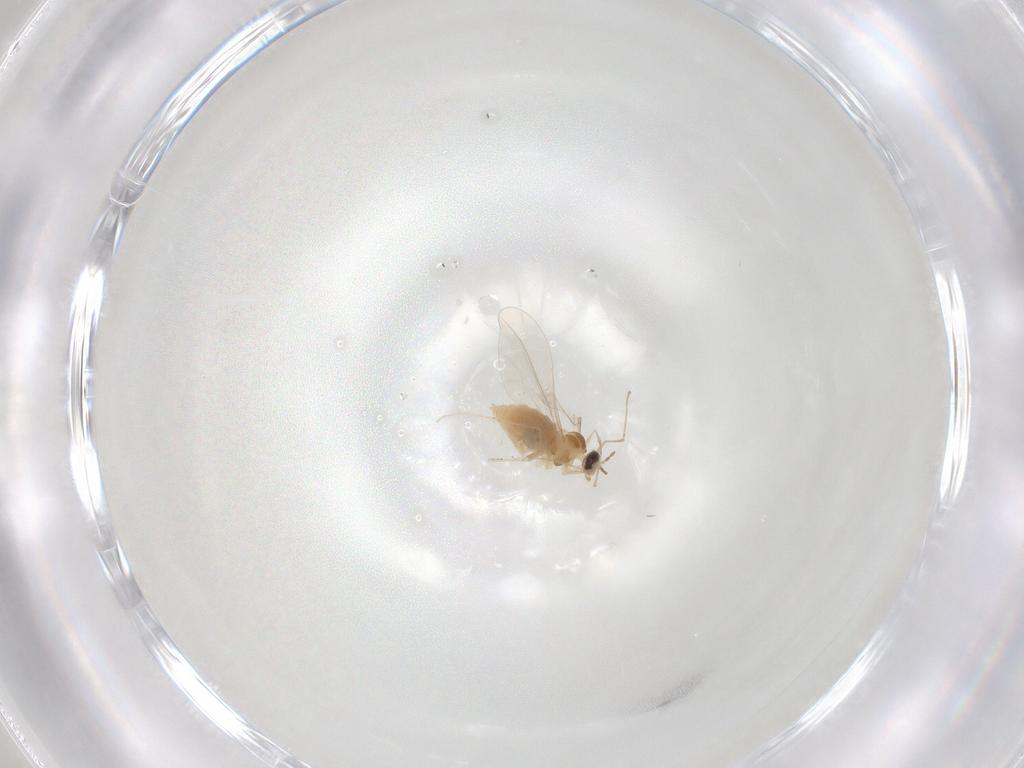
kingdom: Animalia
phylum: Arthropoda
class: Insecta
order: Diptera
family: Cecidomyiidae
